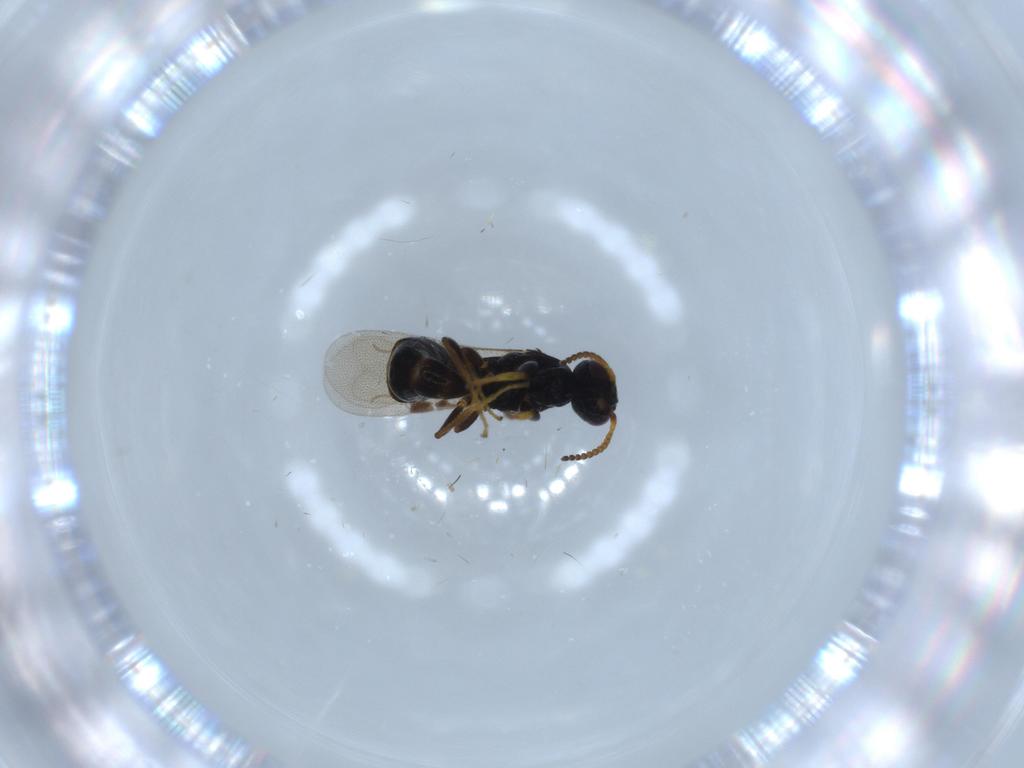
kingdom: Animalia
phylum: Arthropoda
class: Insecta
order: Hymenoptera
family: Bethylidae
